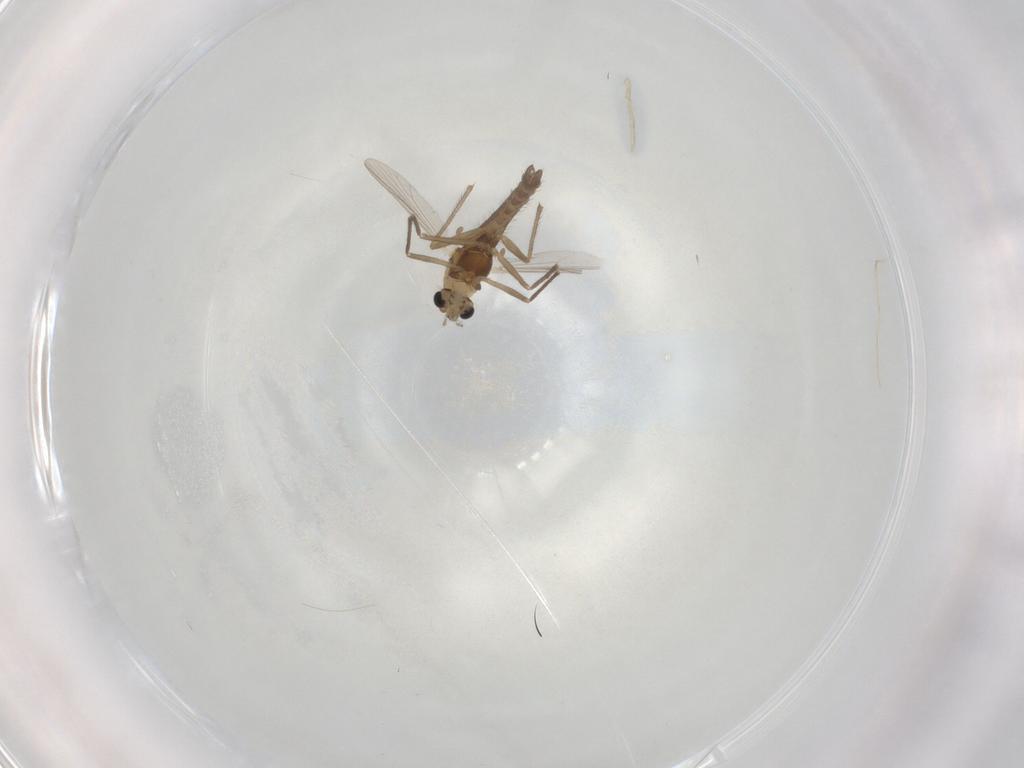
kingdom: Animalia
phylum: Arthropoda
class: Insecta
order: Diptera
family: Chironomidae
